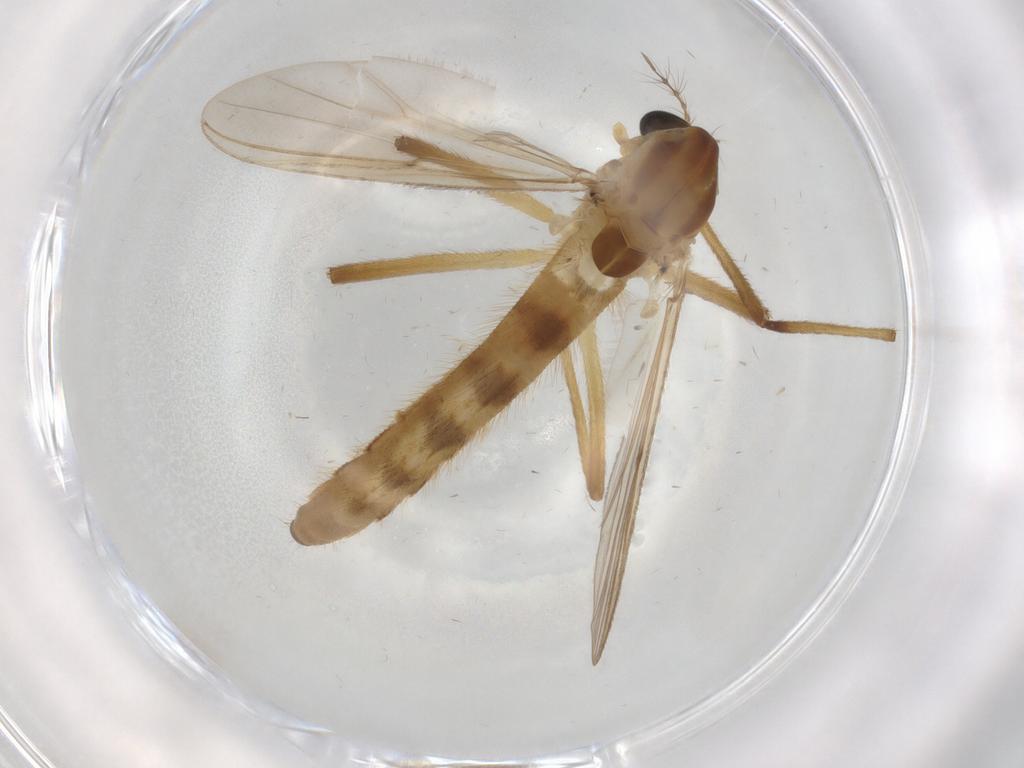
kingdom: Animalia
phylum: Arthropoda
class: Insecta
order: Diptera
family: Chironomidae
